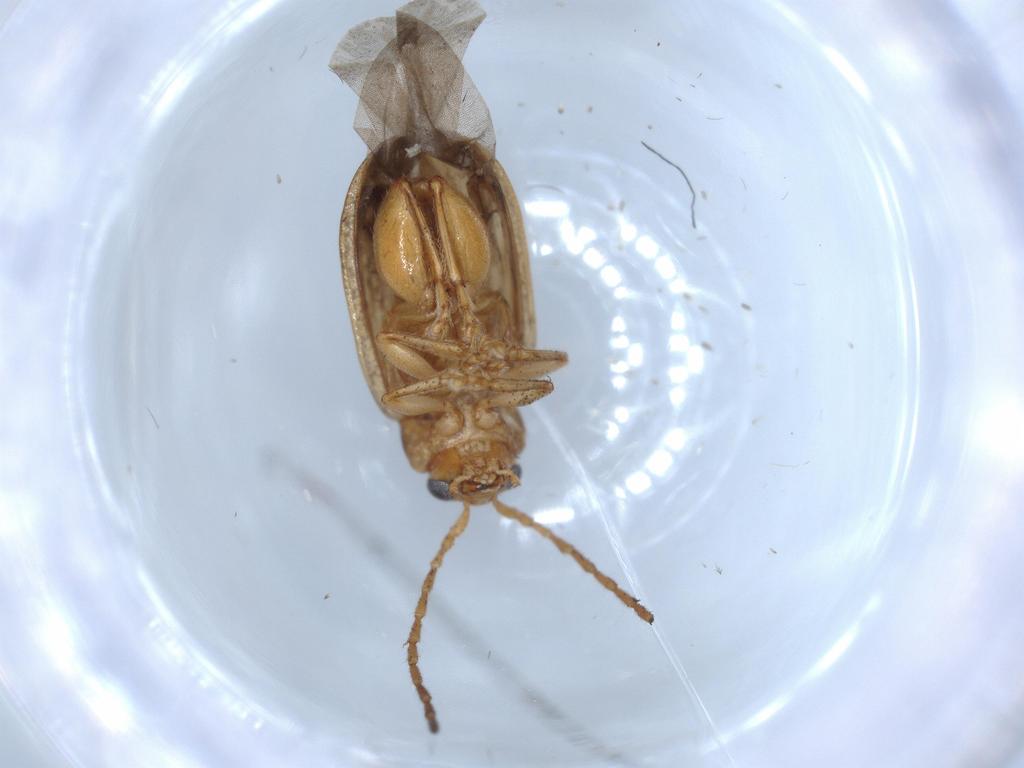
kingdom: Animalia
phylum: Arthropoda
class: Insecta
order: Coleoptera
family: Chrysomelidae
